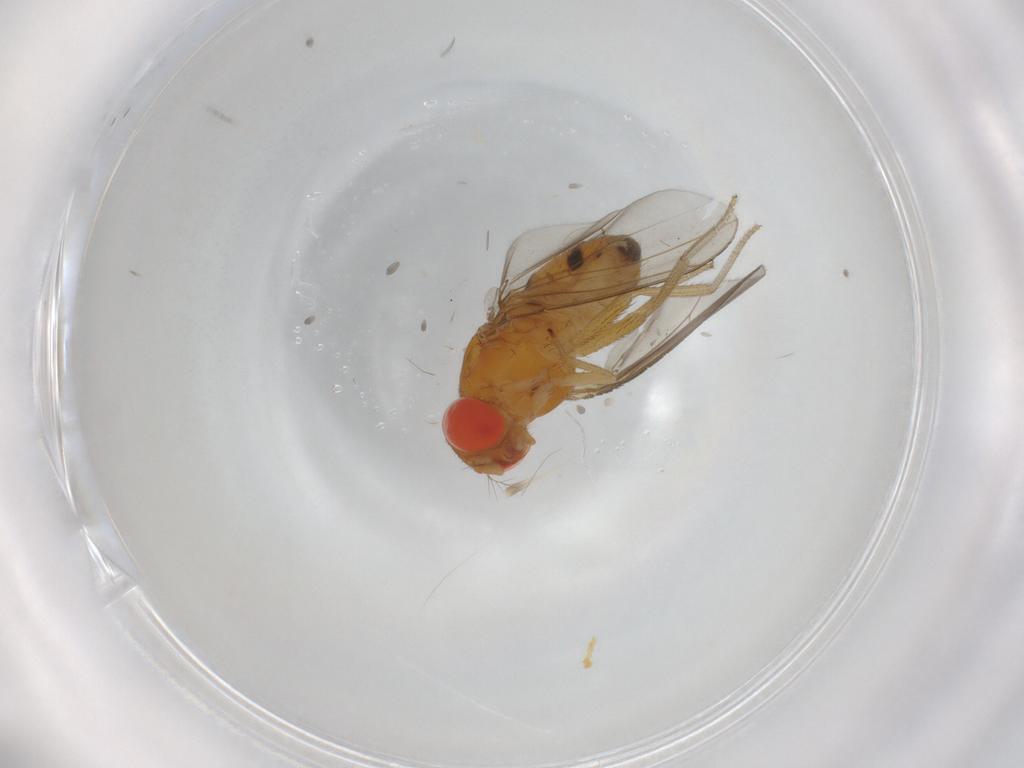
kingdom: Animalia
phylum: Arthropoda
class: Insecta
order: Diptera
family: Drosophilidae
